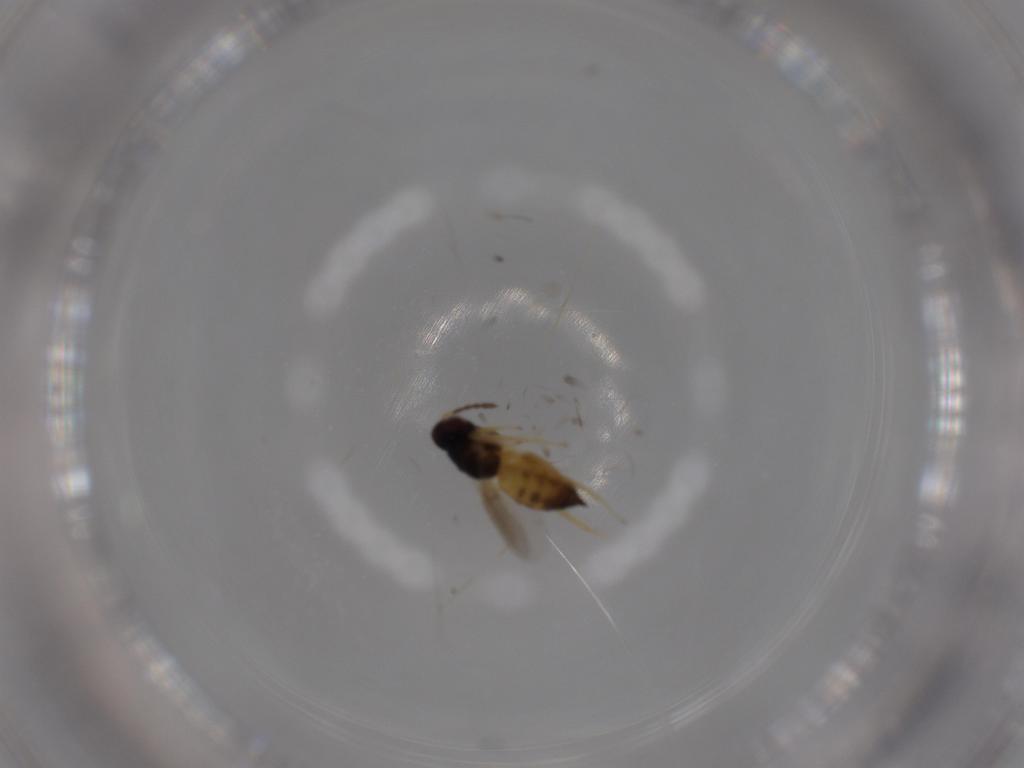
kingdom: Animalia
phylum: Arthropoda
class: Insecta
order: Hymenoptera
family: Eulophidae
